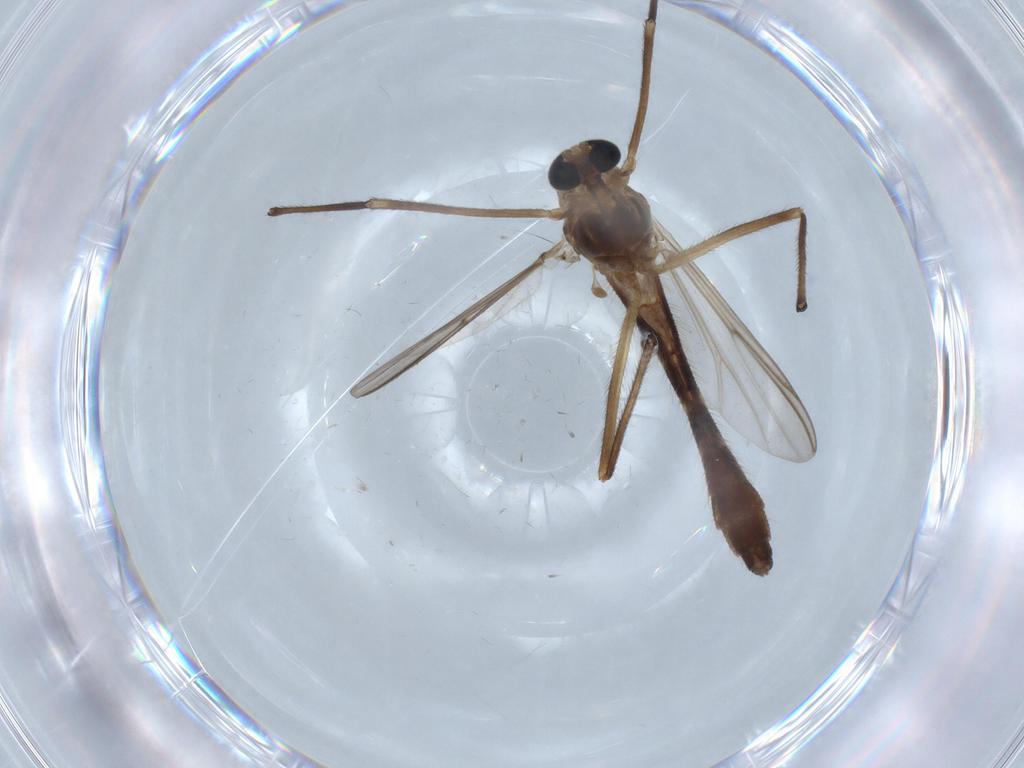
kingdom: Animalia
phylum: Arthropoda
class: Insecta
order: Diptera
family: Chironomidae
